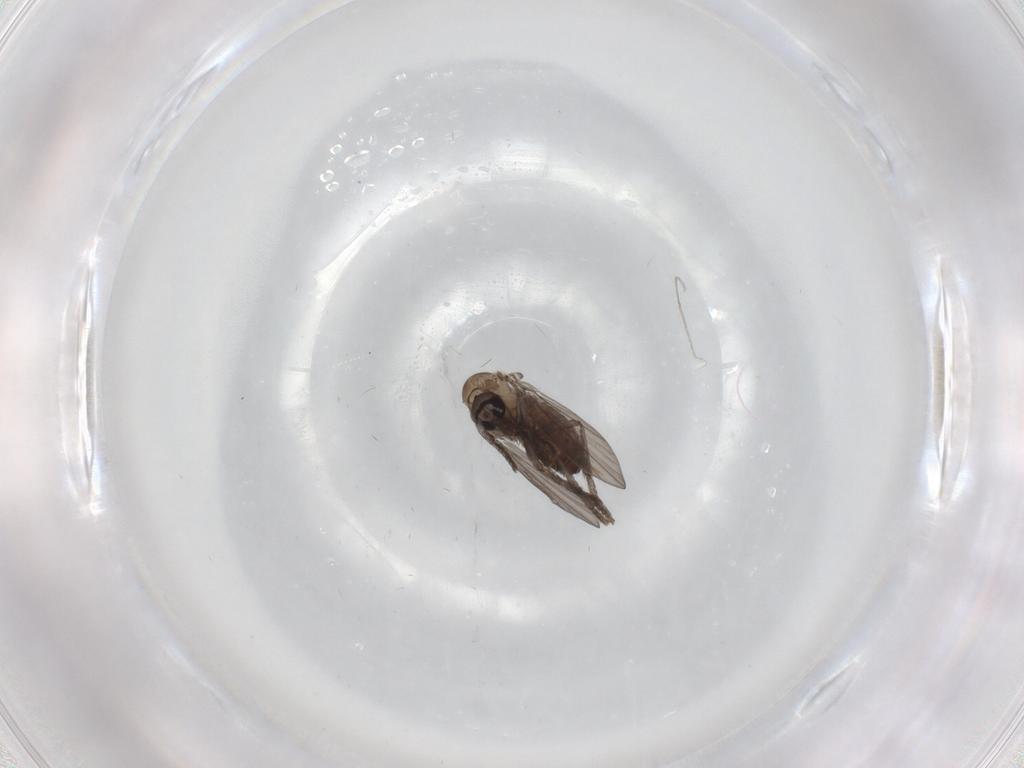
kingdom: Animalia
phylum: Arthropoda
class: Insecta
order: Diptera
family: Psychodidae
